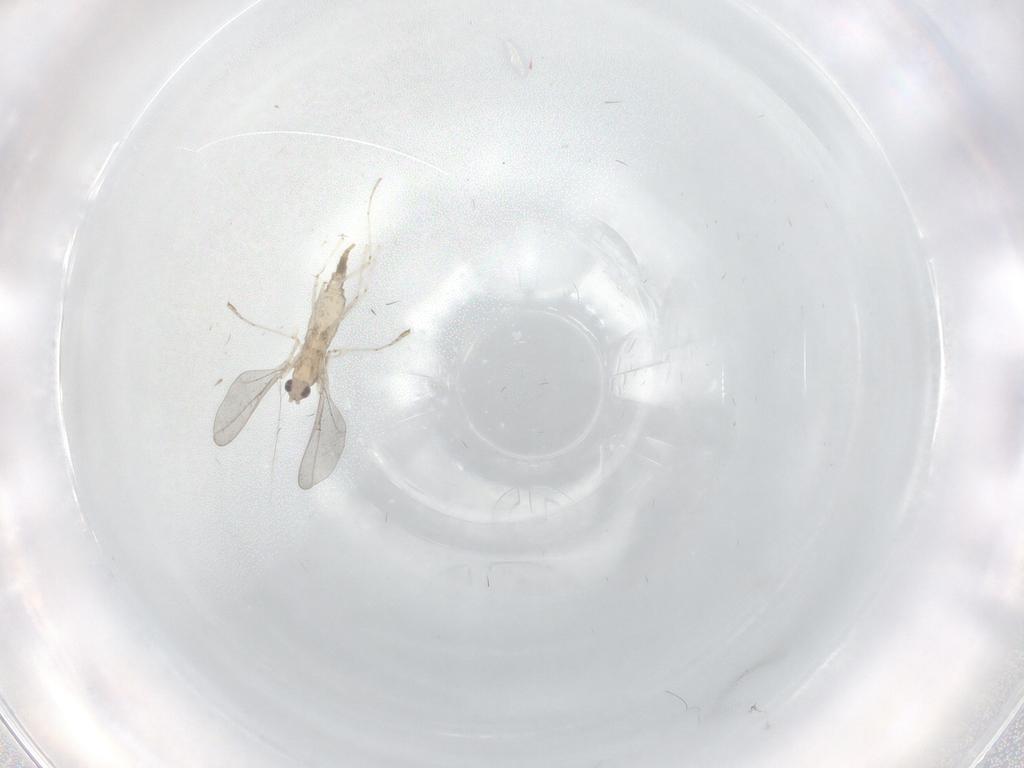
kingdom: Animalia
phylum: Arthropoda
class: Insecta
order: Diptera
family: Cecidomyiidae
